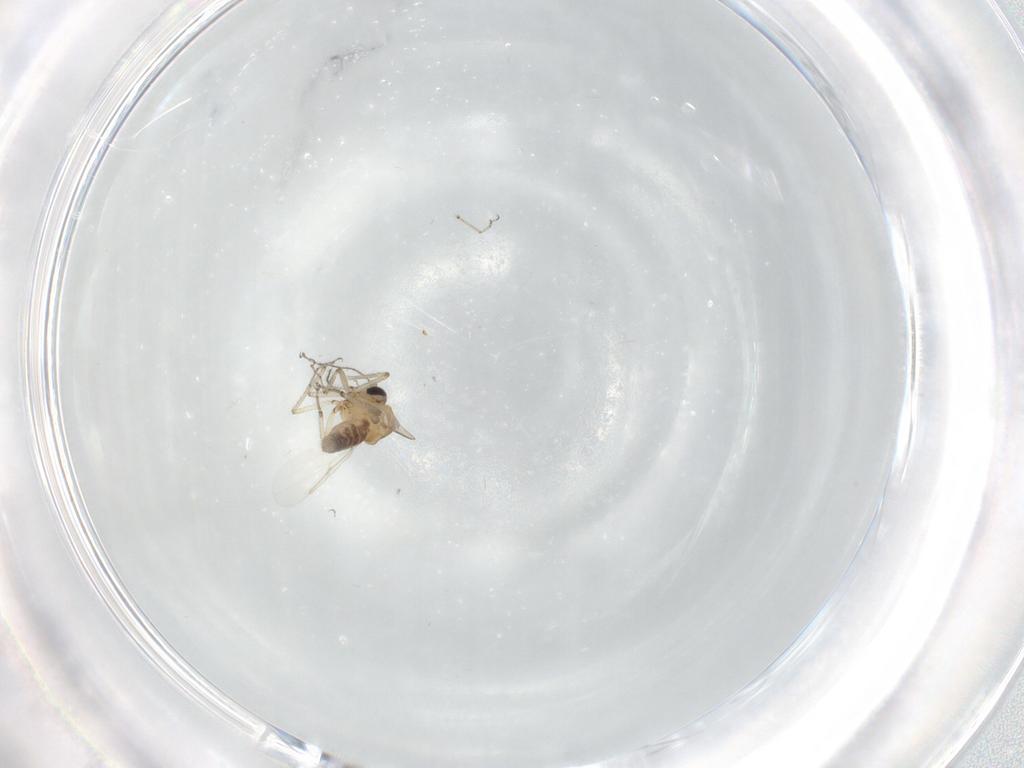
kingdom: Animalia
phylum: Arthropoda
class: Insecta
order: Diptera
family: Ceratopogonidae
